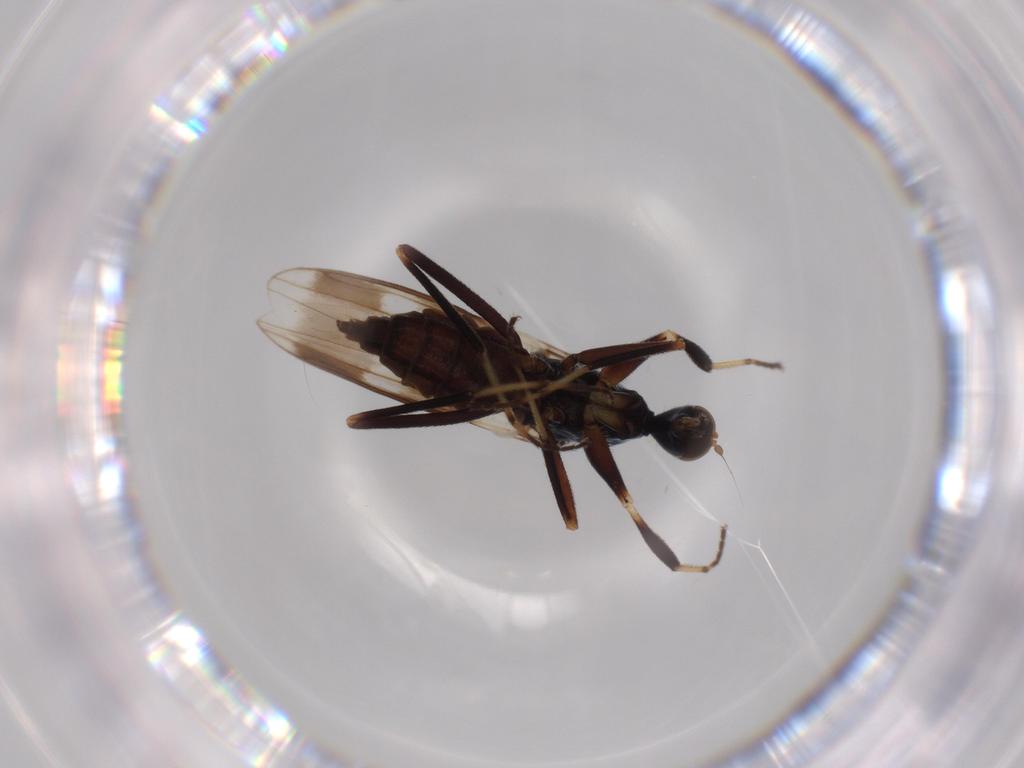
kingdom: Animalia
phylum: Arthropoda
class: Insecta
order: Diptera
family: Hybotidae
